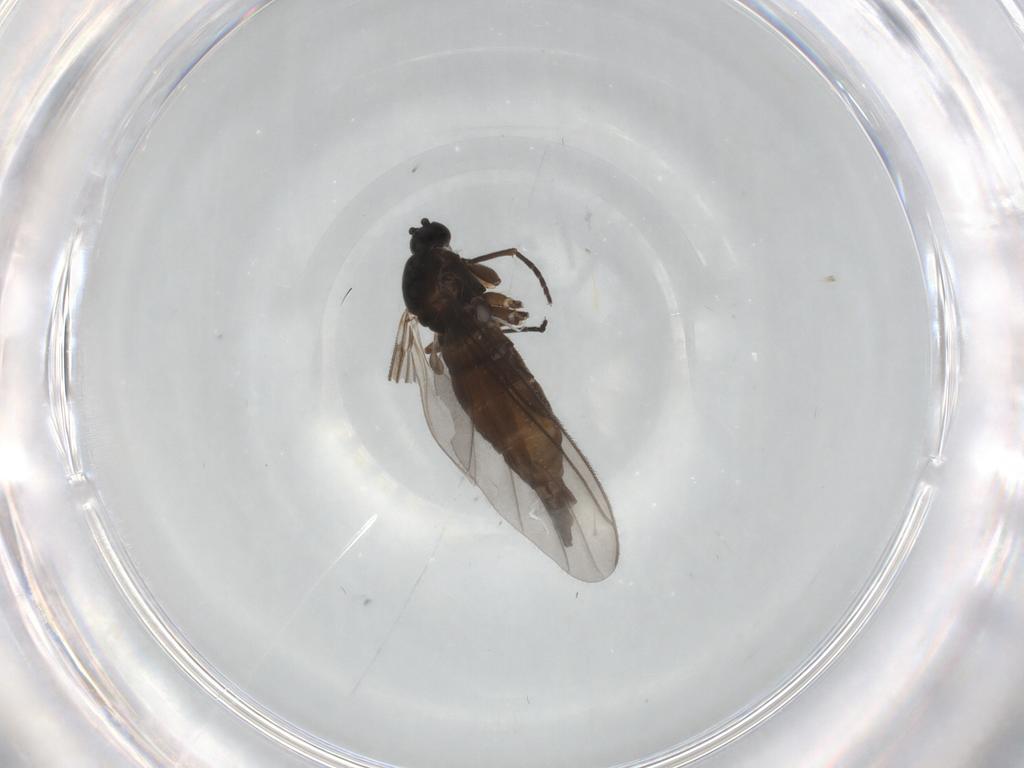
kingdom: Animalia
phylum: Arthropoda
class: Insecta
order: Diptera
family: Sciaridae
